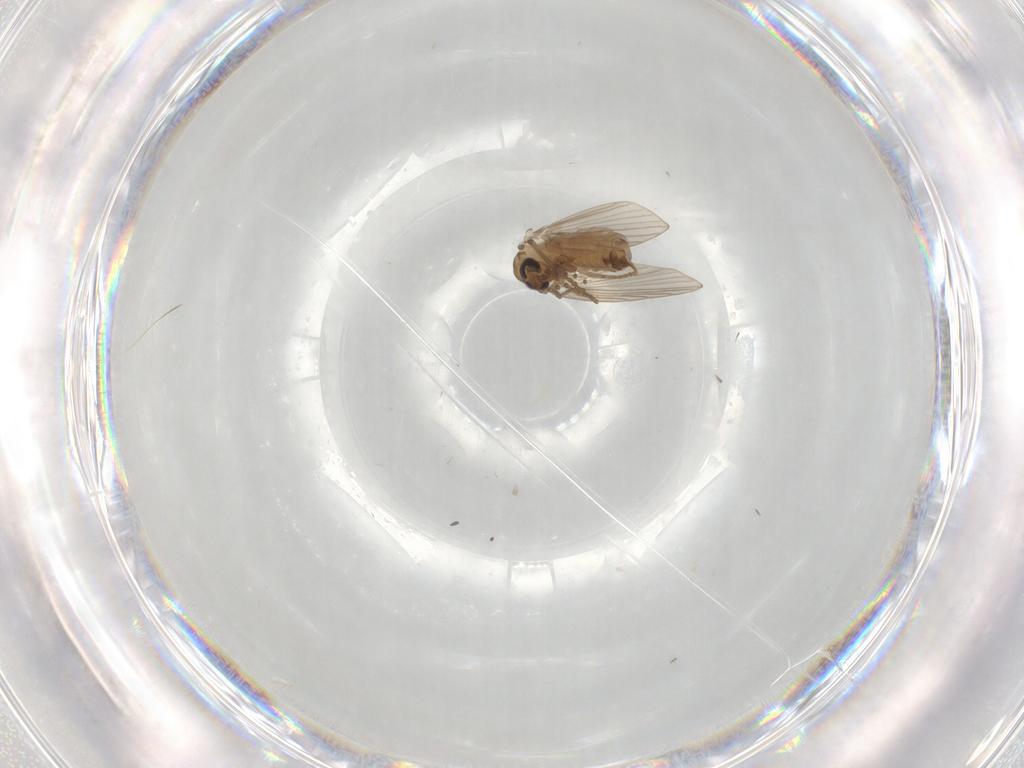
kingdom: Animalia
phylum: Arthropoda
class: Insecta
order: Diptera
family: Psychodidae
